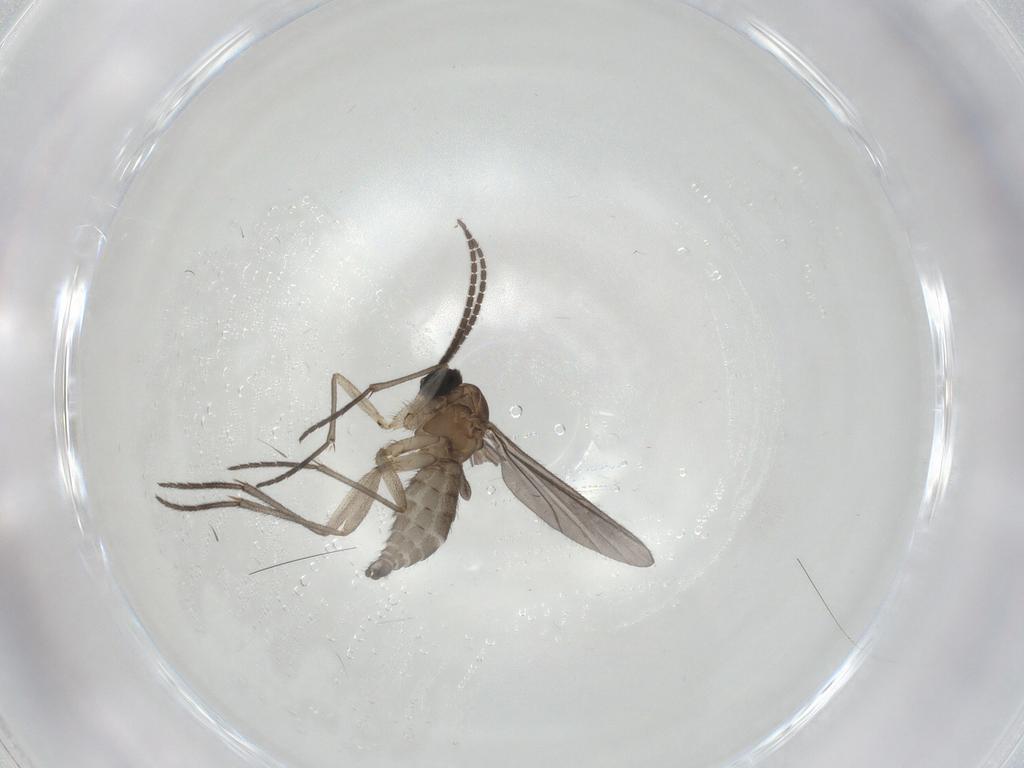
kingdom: Animalia
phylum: Arthropoda
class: Insecta
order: Diptera
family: Sciaridae
